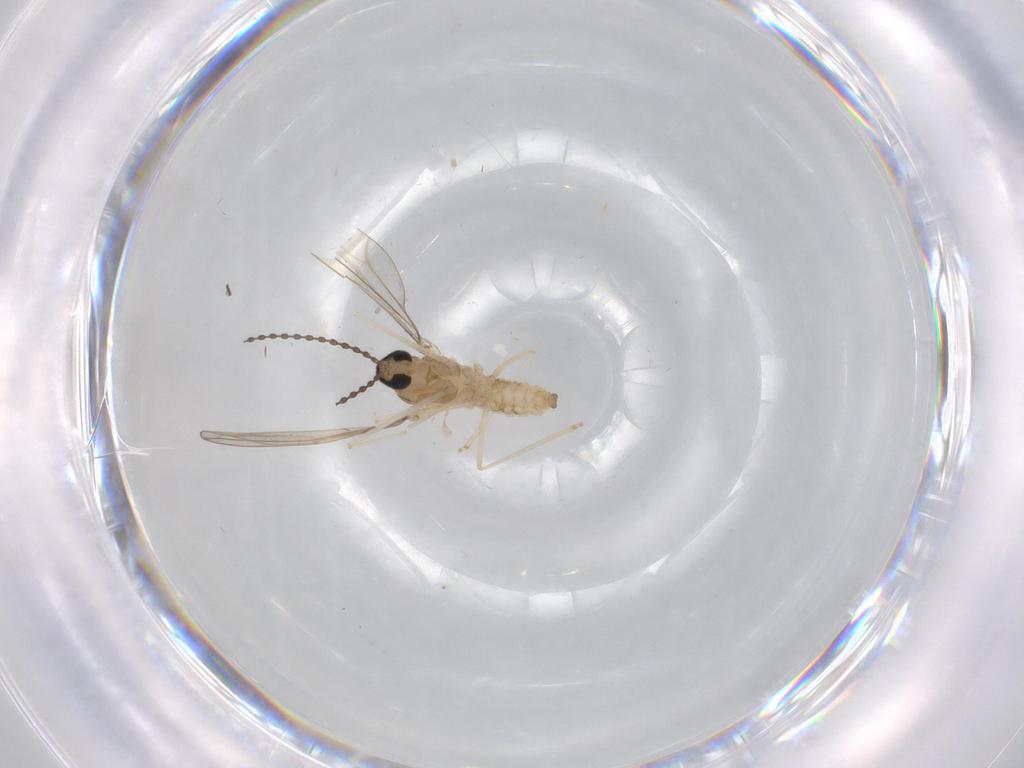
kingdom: Animalia
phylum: Arthropoda
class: Insecta
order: Diptera
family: Cecidomyiidae
